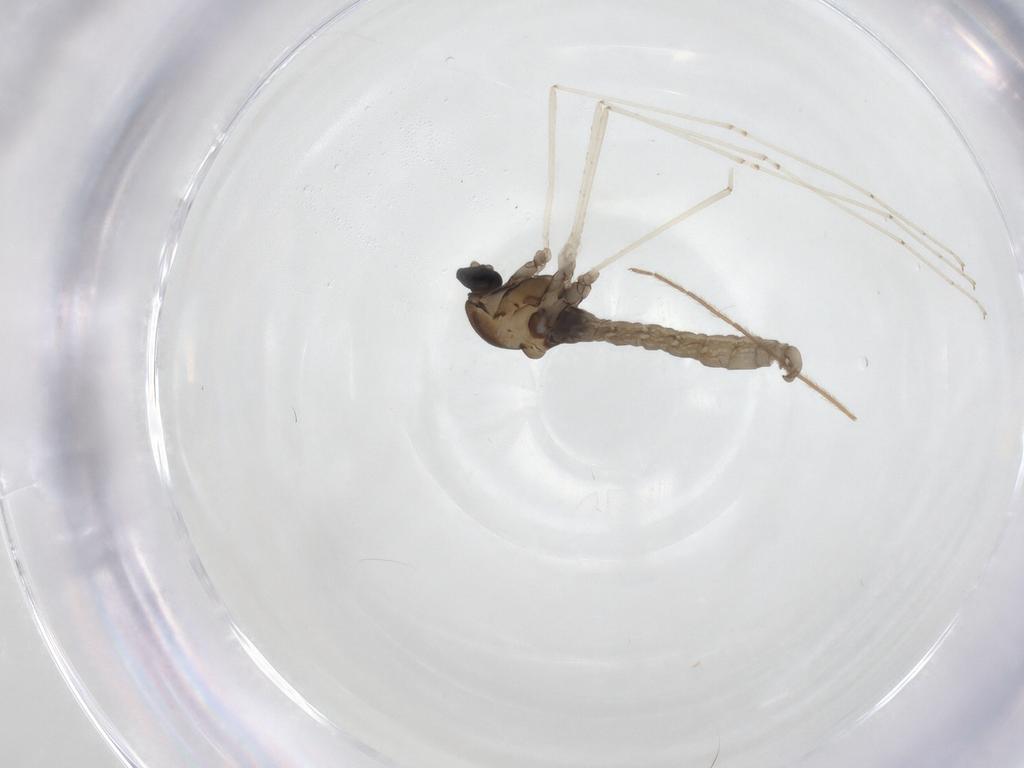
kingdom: Animalia
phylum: Arthropoda
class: Insecta
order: Diptera
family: Cecidomyiidae
